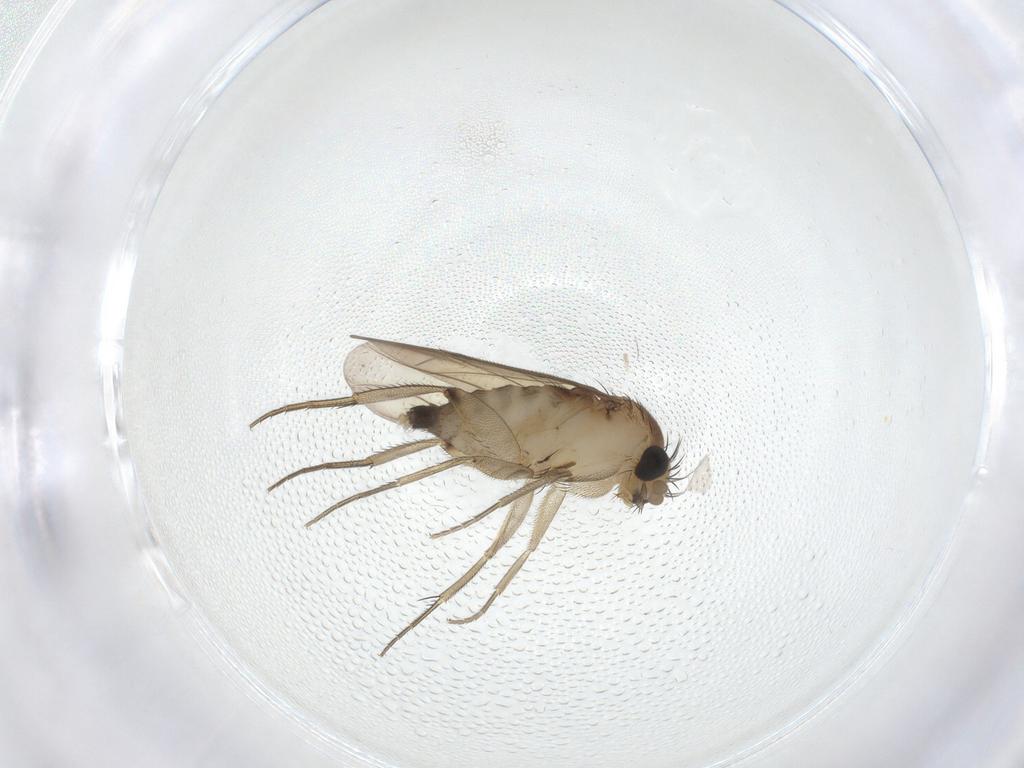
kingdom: Animalia
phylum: Arthropoda
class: Insecta
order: Diptera
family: Phoridae
